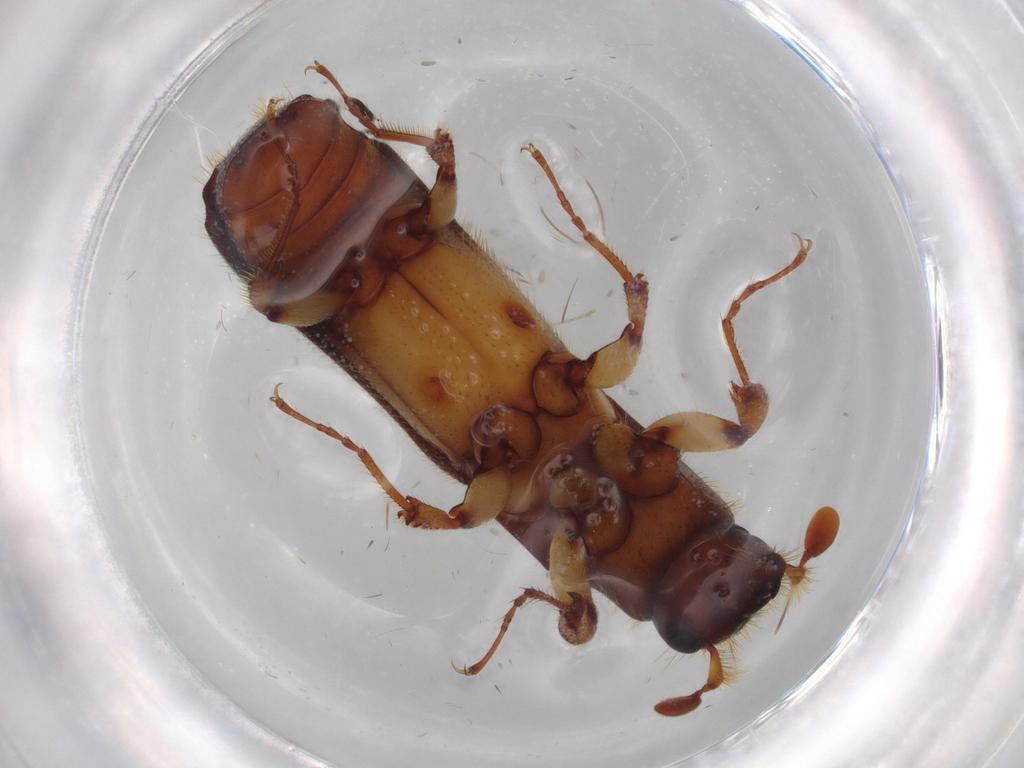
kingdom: Animalia
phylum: Arthropoda
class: Insecta
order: Coleoptera
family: Curculionidae
